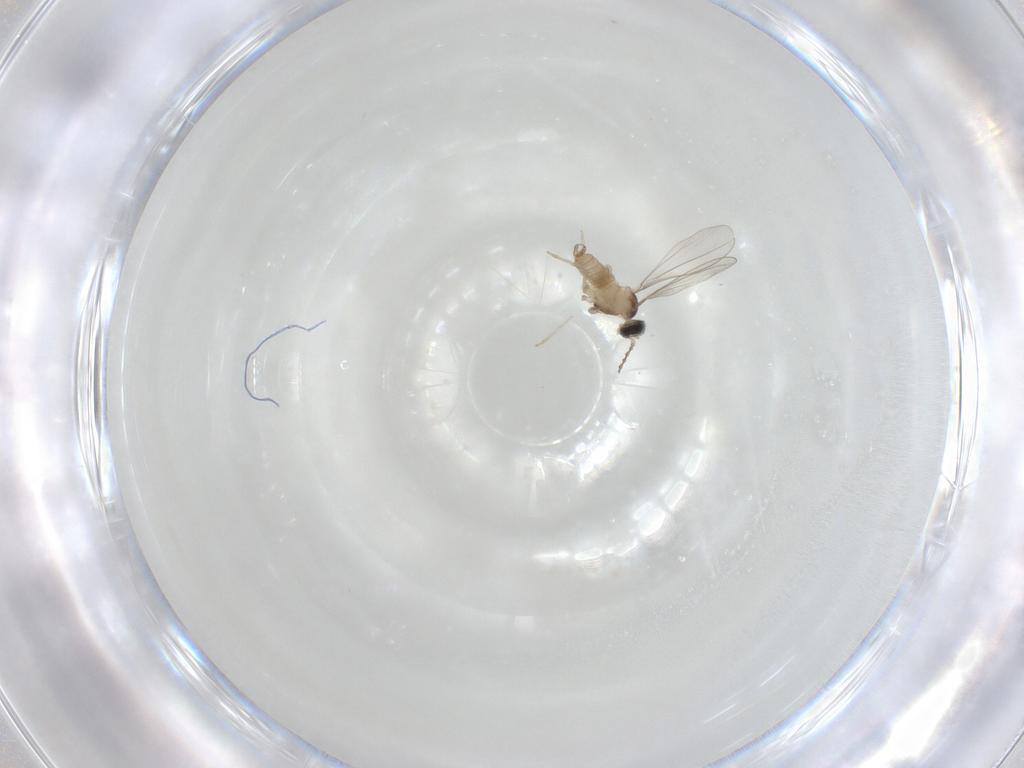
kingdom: Animalia
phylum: Arthropoda
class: Insecta
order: Diptera
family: Cecidomyiidae
